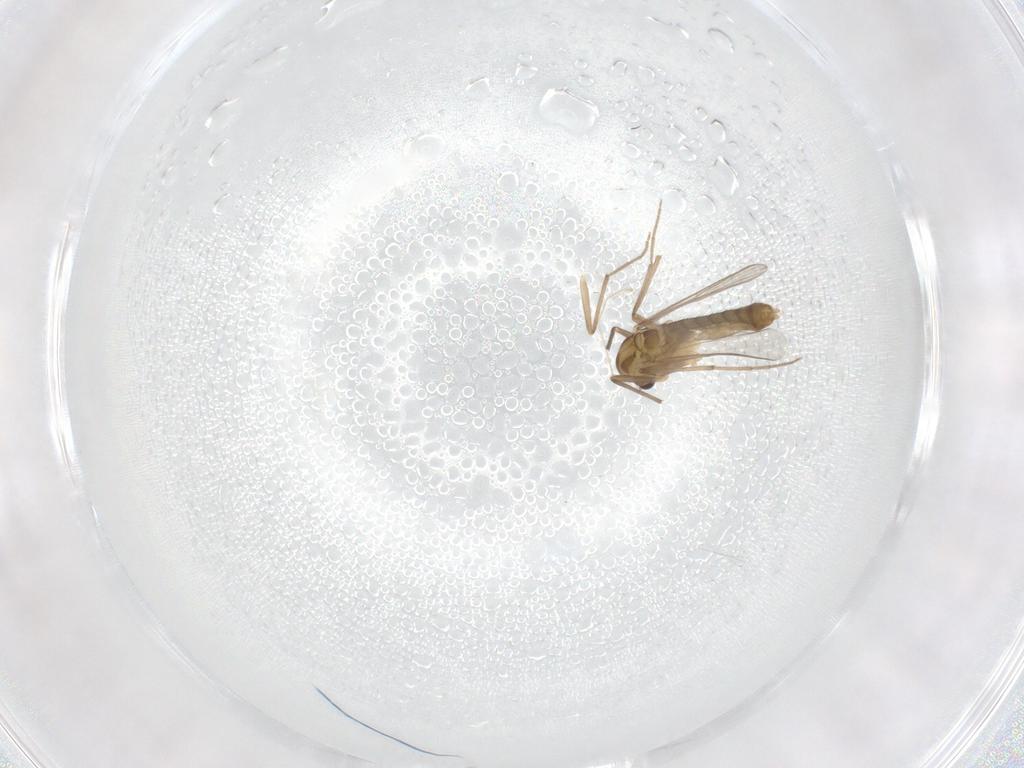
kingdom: Animalia
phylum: Arthropoda
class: Insecta
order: Diptera
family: Chironomidae
